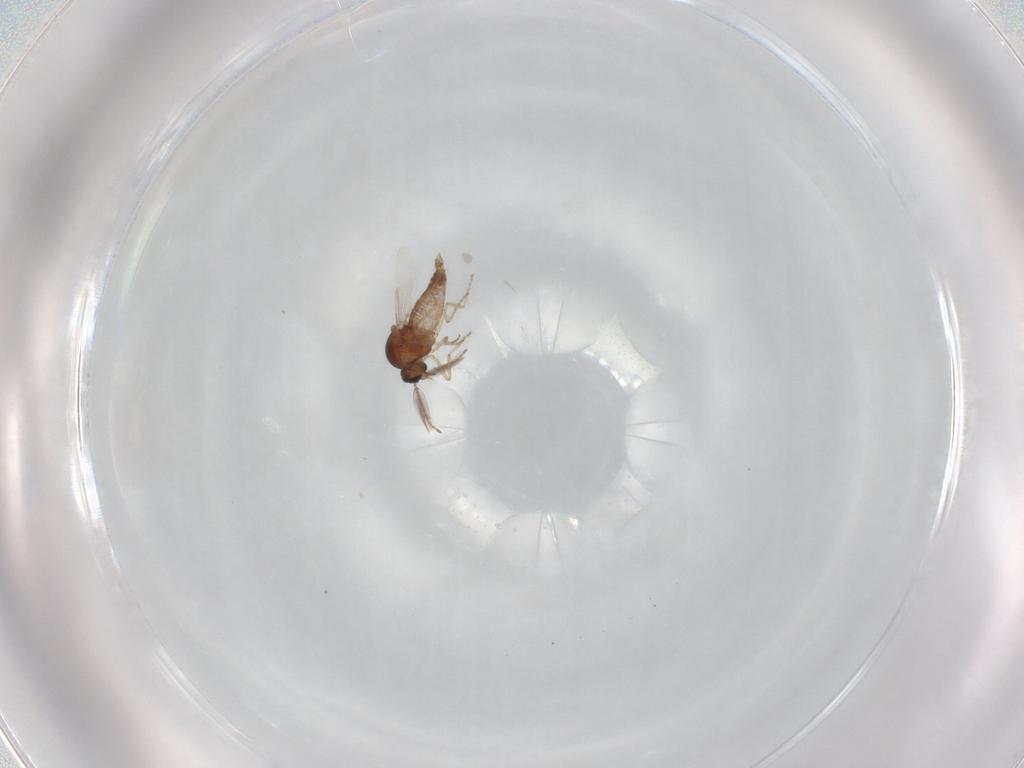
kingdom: Animalia
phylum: Arthropoda
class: Insecta
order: Diptera
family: Ceratopogonidae
